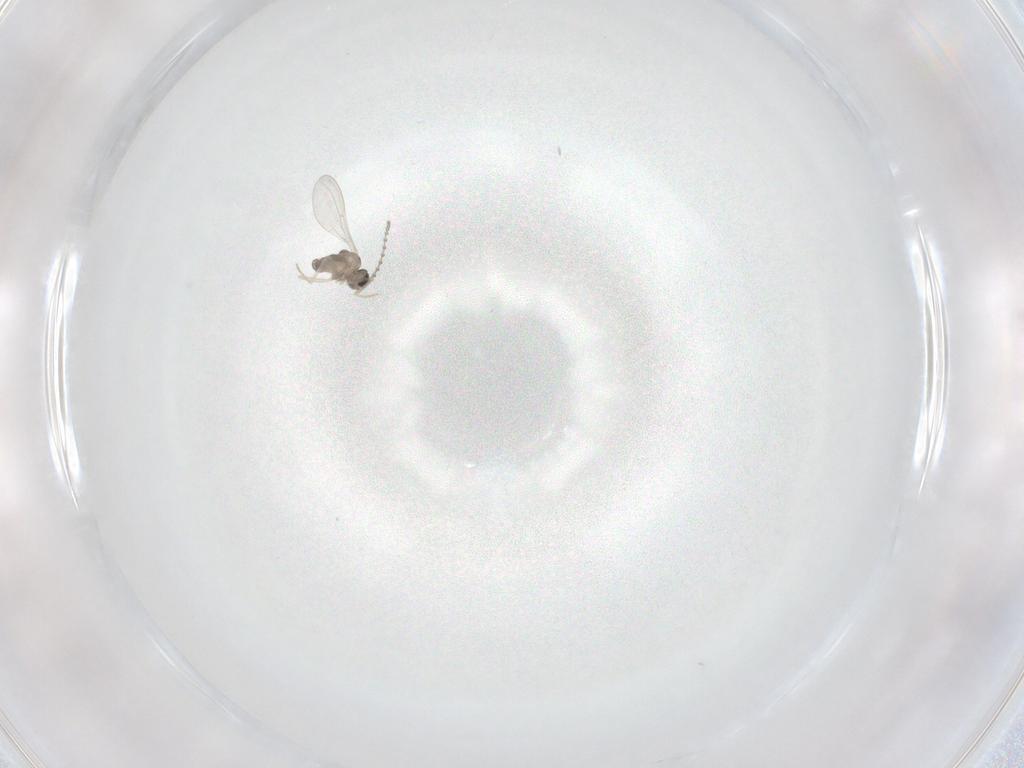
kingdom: Animalia
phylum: Arthropoda
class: Insecta
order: Diptera
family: Cecidomyiidae
